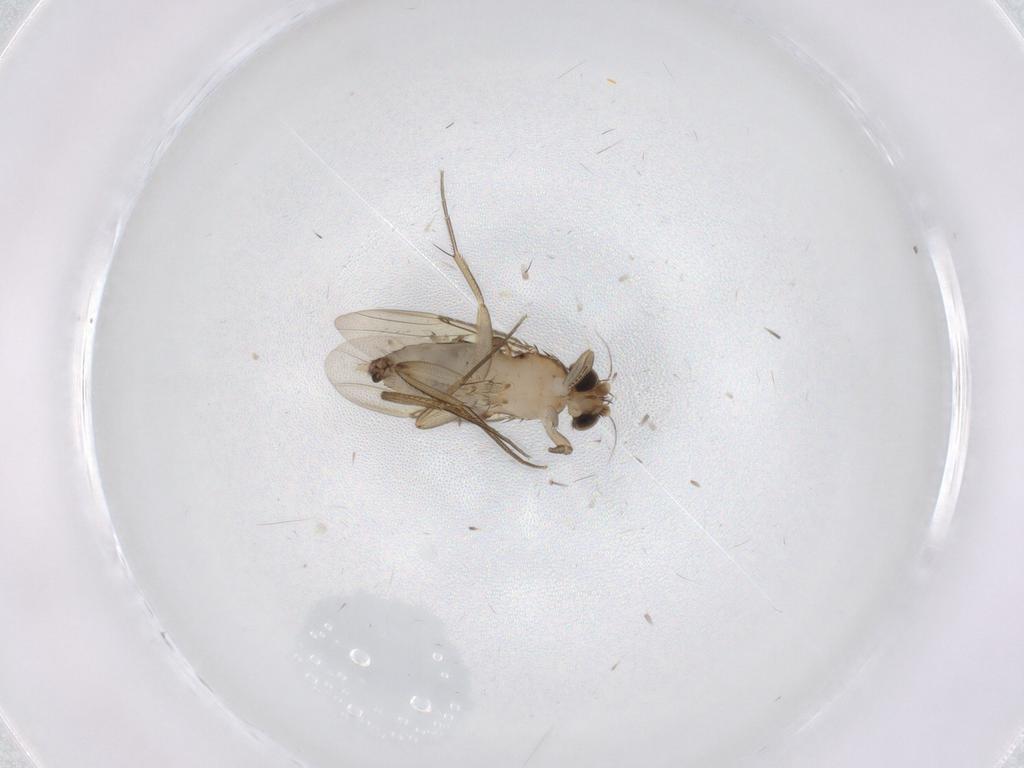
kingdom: Animalia
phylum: Arthropoda
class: Insecta
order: Diptera
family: Phoridae
